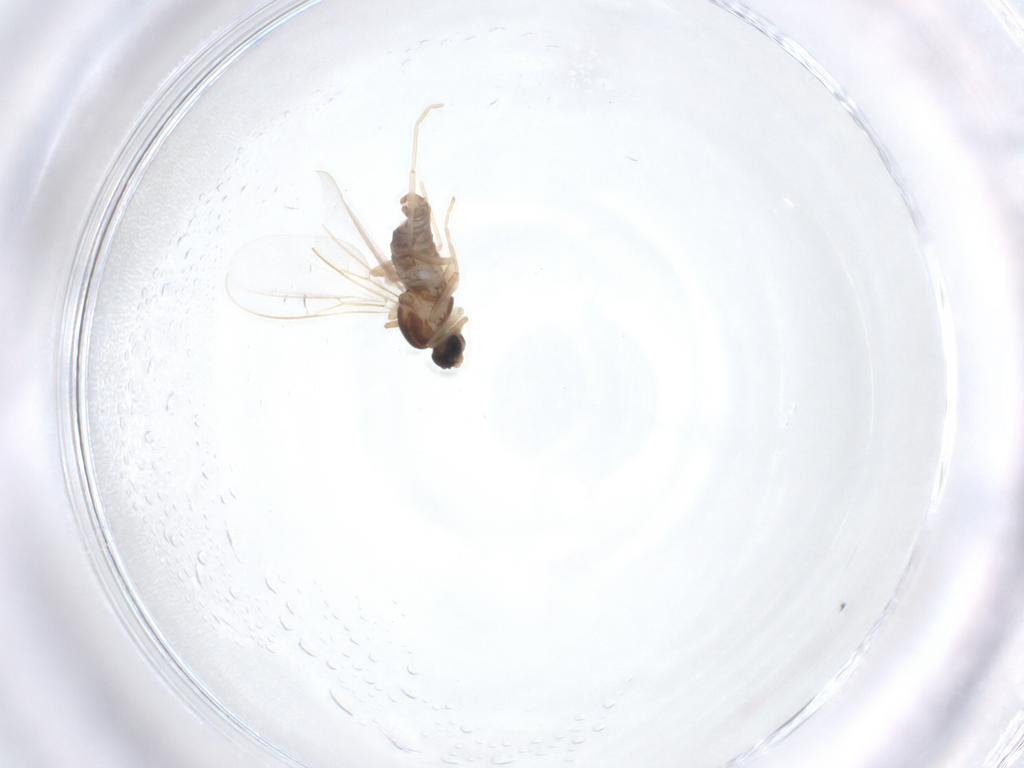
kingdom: Animalia
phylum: Arthropoda
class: Insecta
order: Diptera
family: Cecidomyiidae
